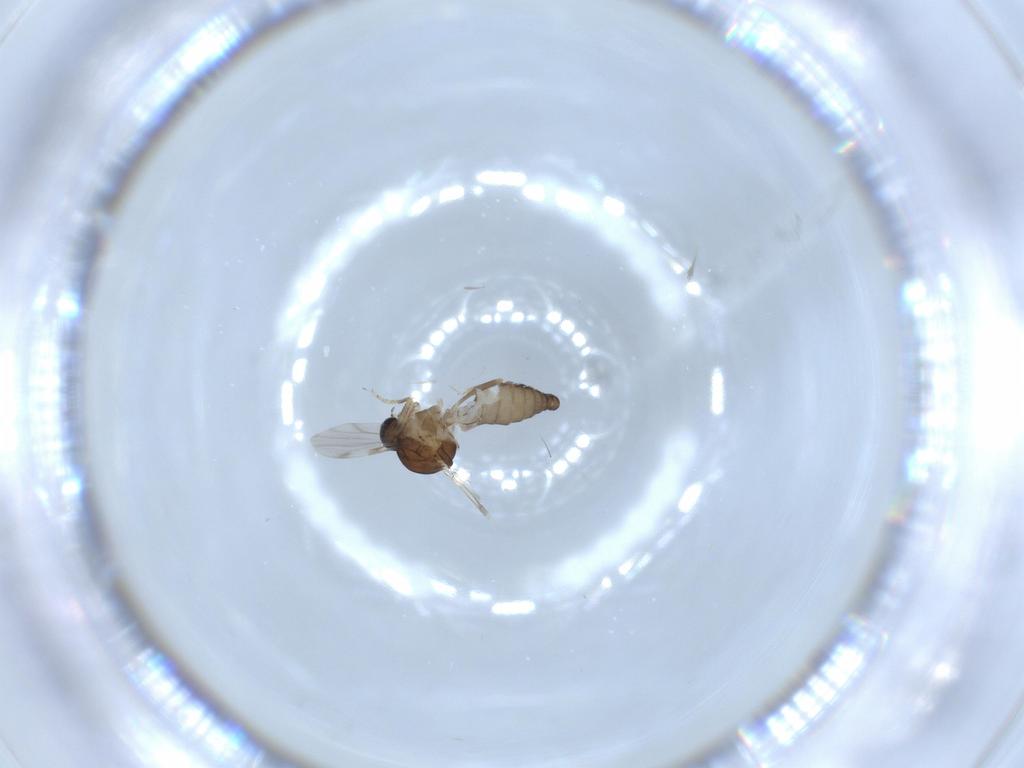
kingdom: Animalia
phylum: Arthropoda
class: Insecta
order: Diptera
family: Ceratopogonidae
